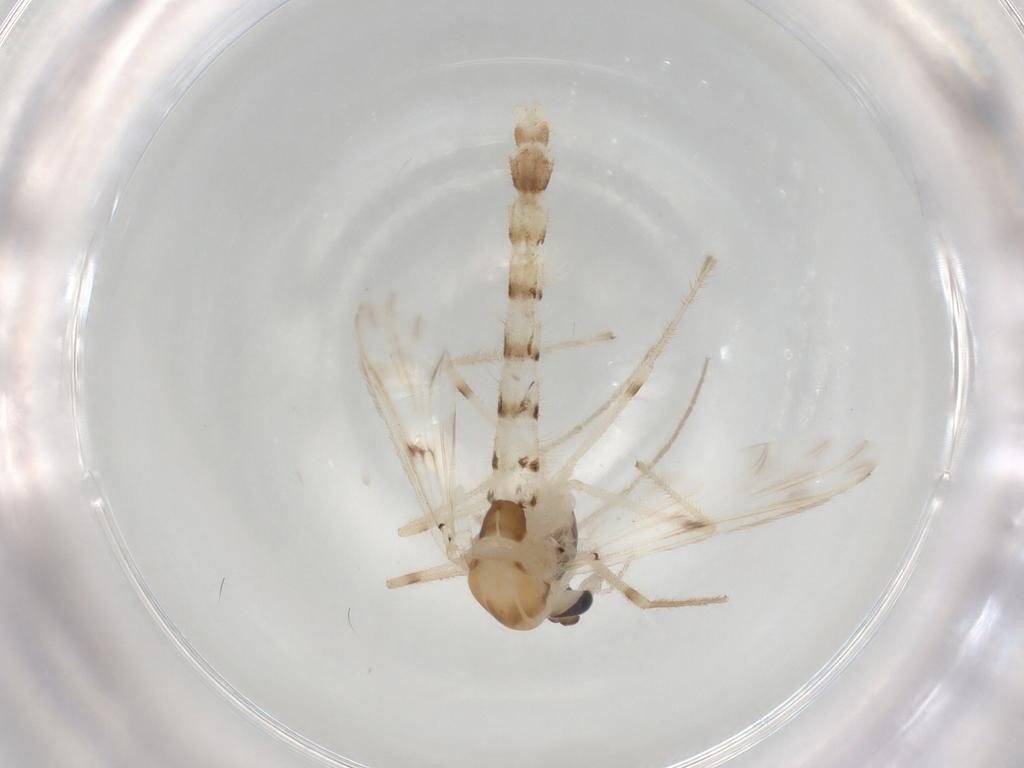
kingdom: Animalia
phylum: Arthropoda
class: Insecta
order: Diptera
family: Chironomidae
